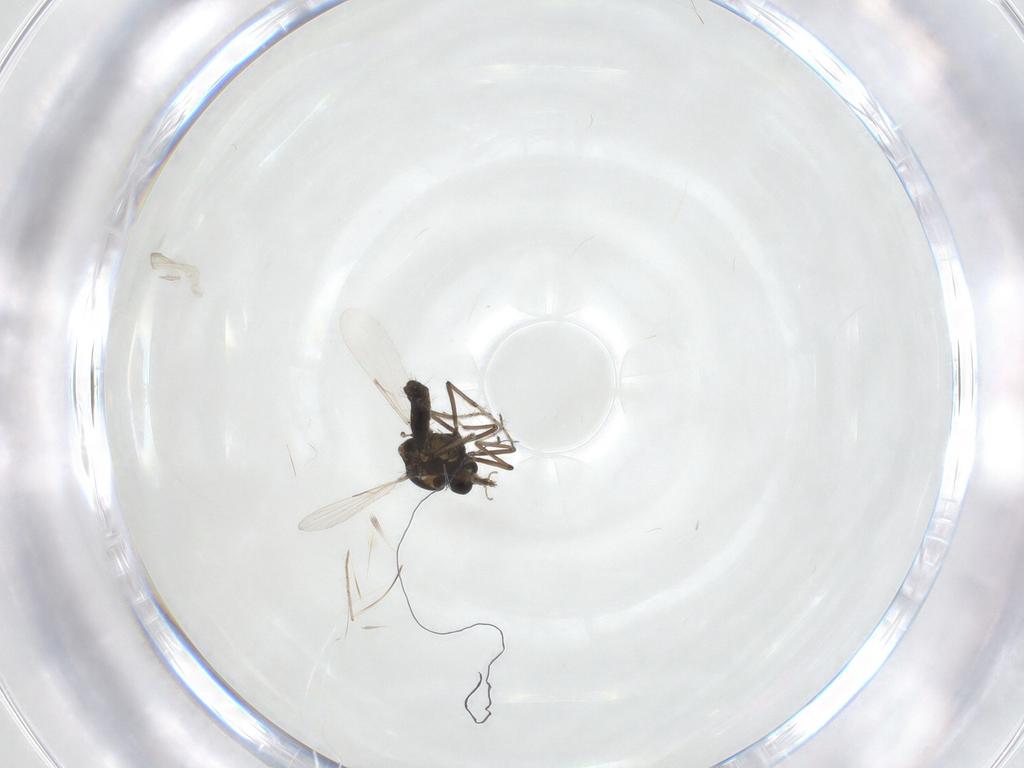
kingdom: Animalia
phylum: Arthropoda
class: Insecta
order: Diptera
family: Ceratopogonidae
